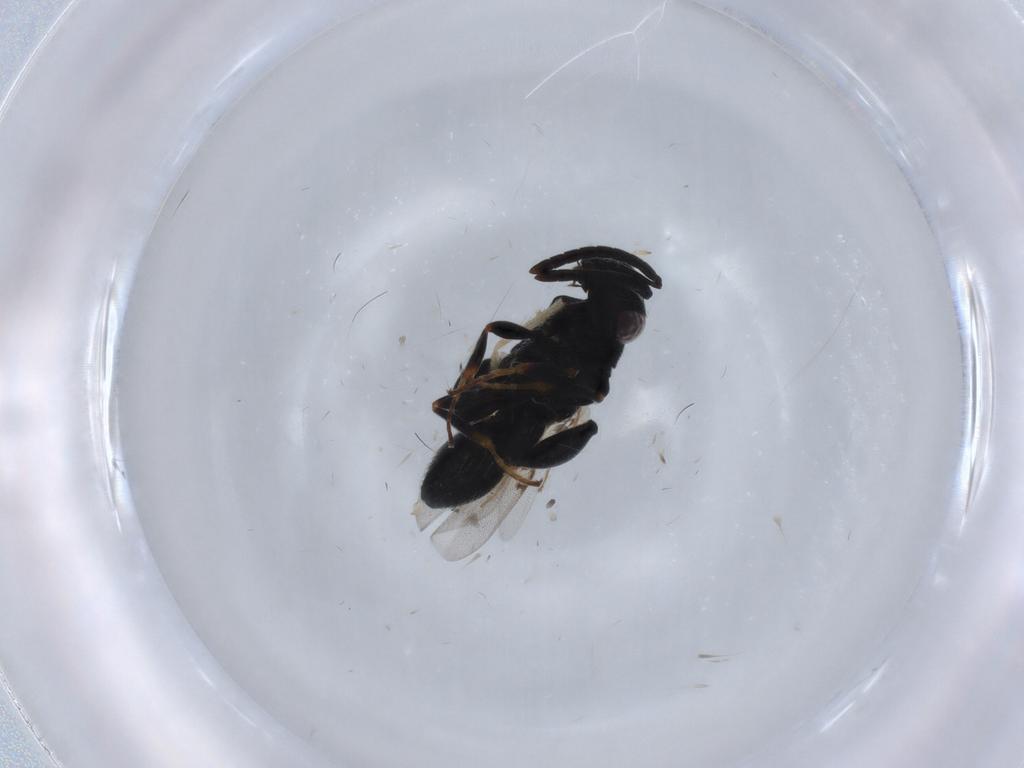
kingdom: Animalia
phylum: Arthropoda
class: Insecta
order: Hymenoptera
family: Chalcididae
